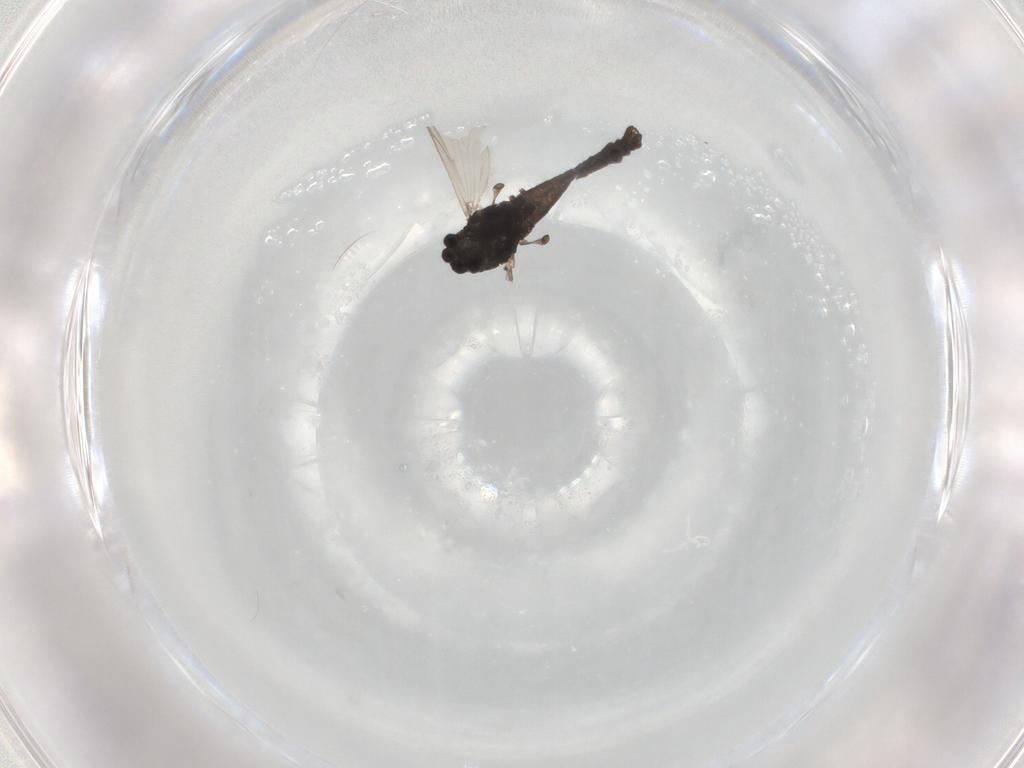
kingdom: Animalia
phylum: Arthropoda
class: Insecta
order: Diptera
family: Chironomidae
